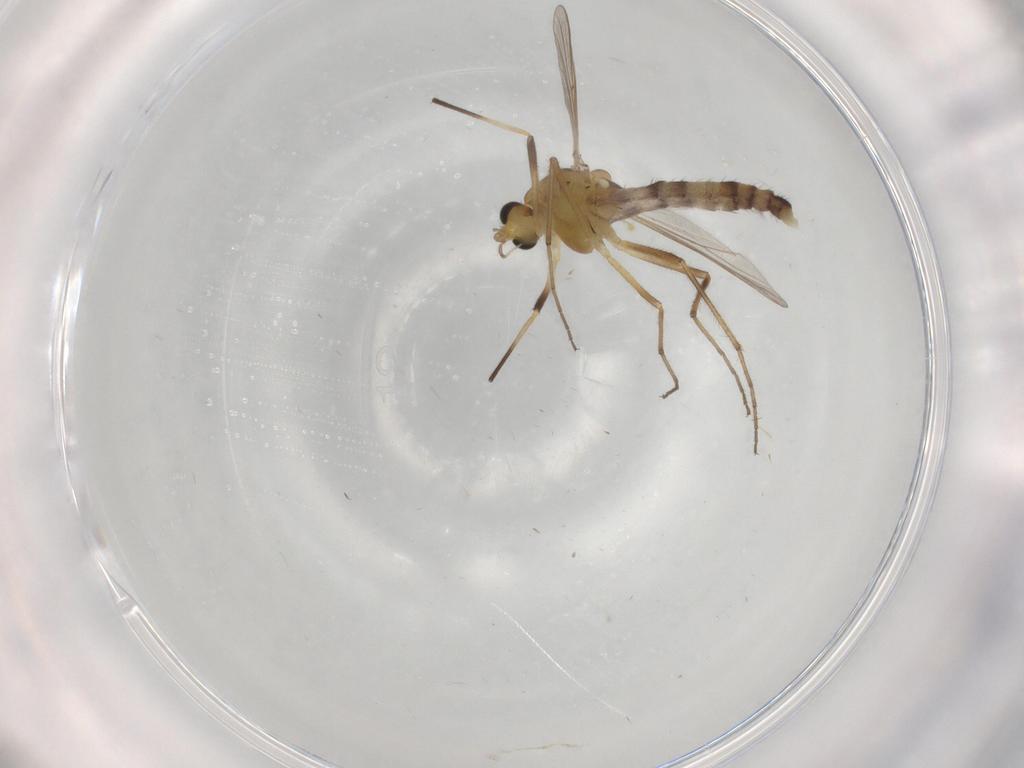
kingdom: Animalia
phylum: Arthropoda
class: Insecta
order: Diptera
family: Chironomidae
